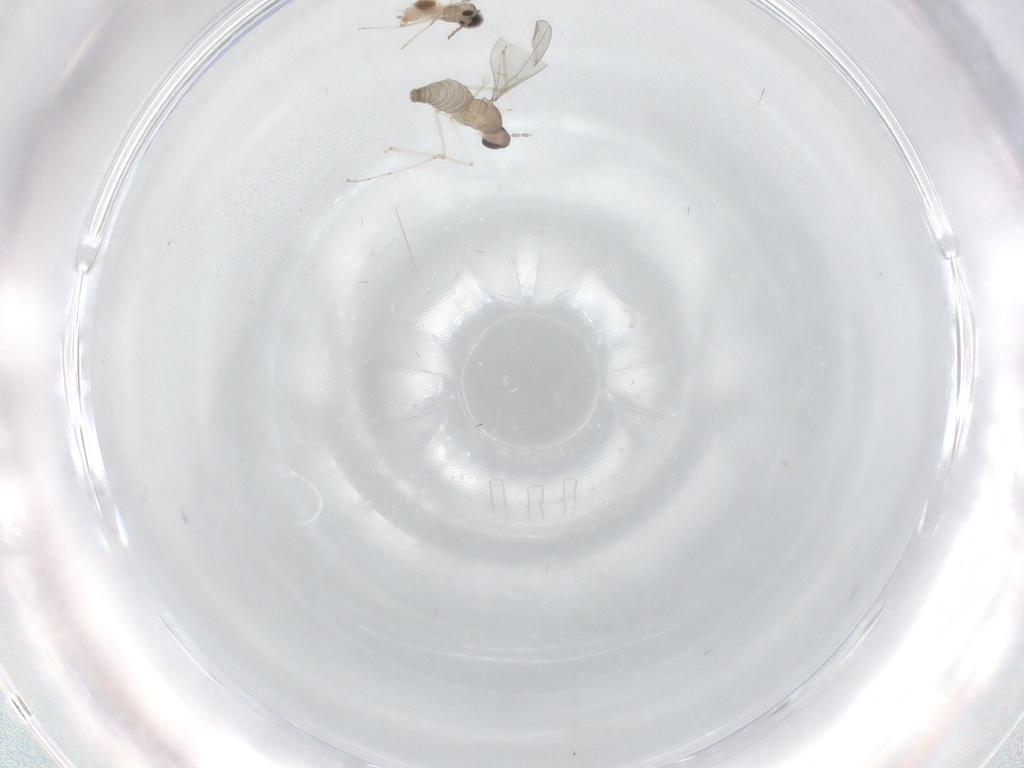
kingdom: Animalia
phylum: Arthropoda
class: Insecta
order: Diptera
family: Cecidomyiidae
